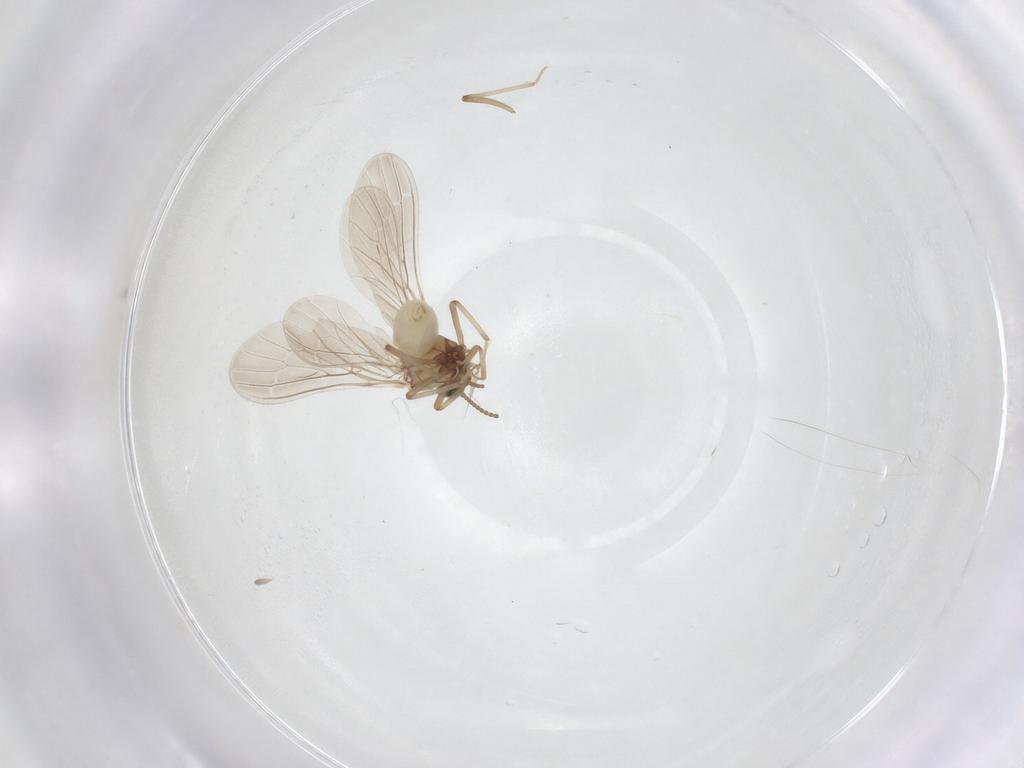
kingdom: Animalia
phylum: Arthropoda
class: Insecta
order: Neuroptera
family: Coniopterygidae
